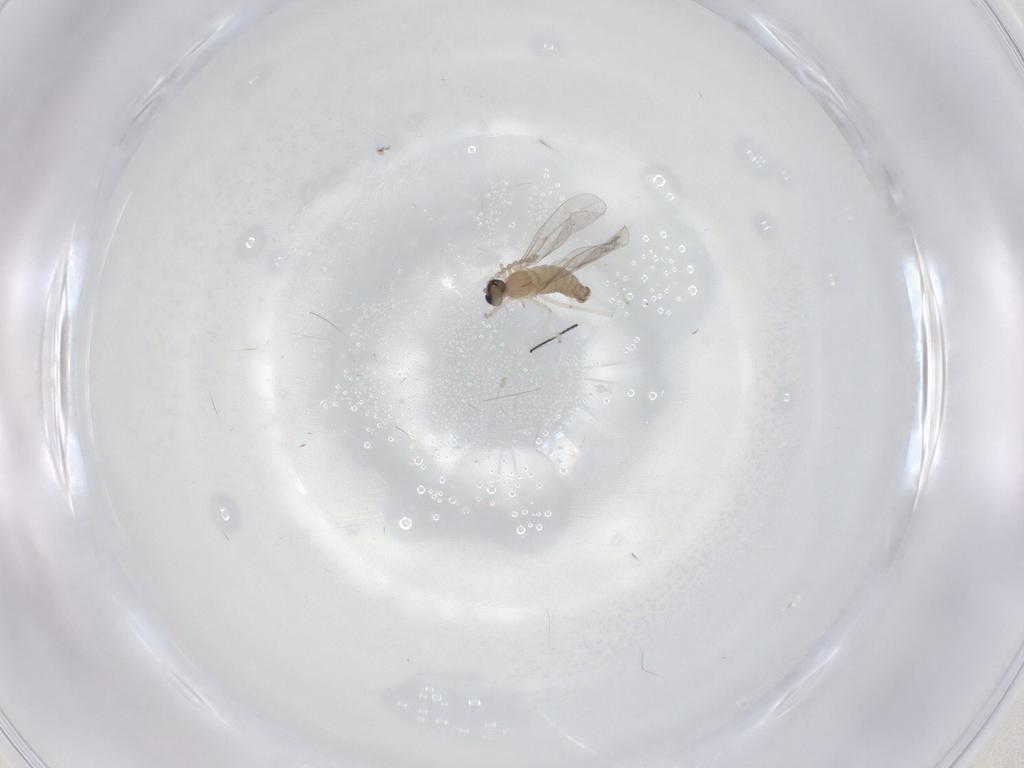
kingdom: Animalia
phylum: Arthropoda
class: Insecta
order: Diptera
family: Cecidomyiidae
